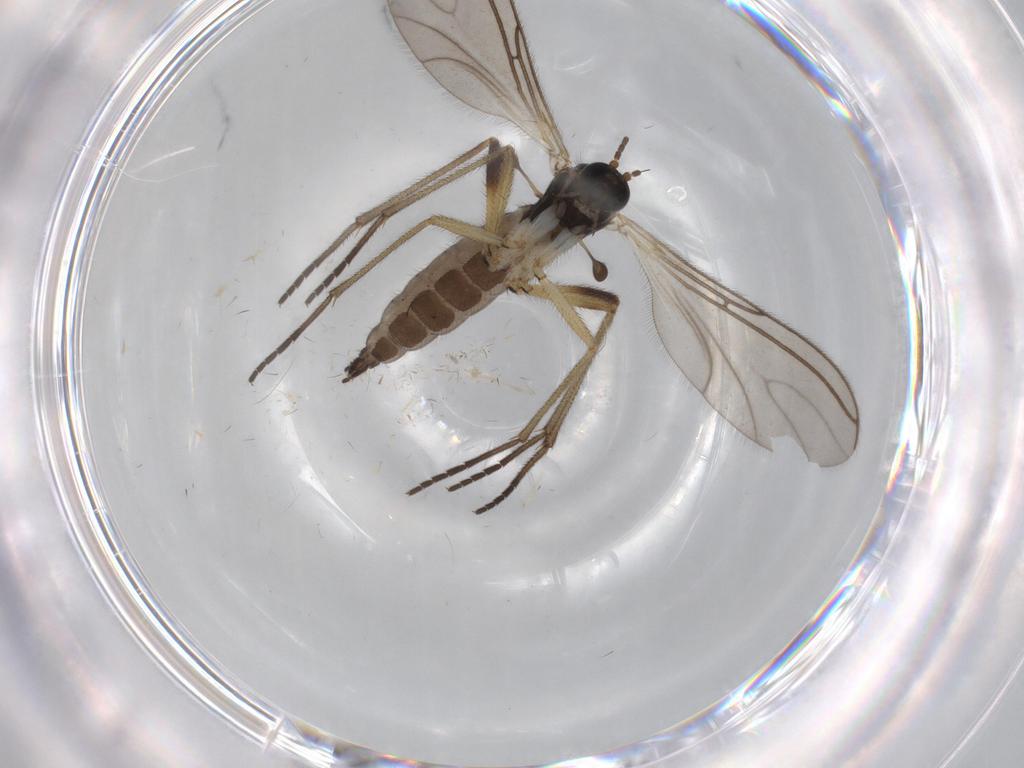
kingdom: Animalia
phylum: Arthropoda
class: Insecta
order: Diptera
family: Sciaridae
